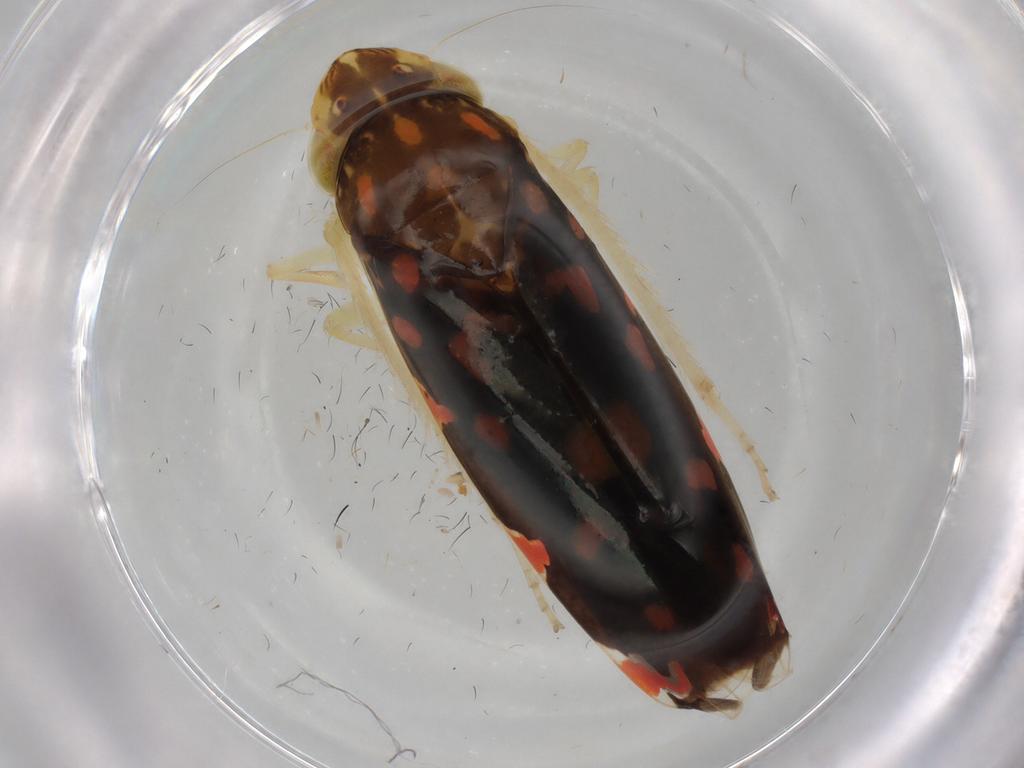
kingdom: Animalia
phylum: Arthropoda
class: Insecta
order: Hemiptera
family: Cicadellidae
